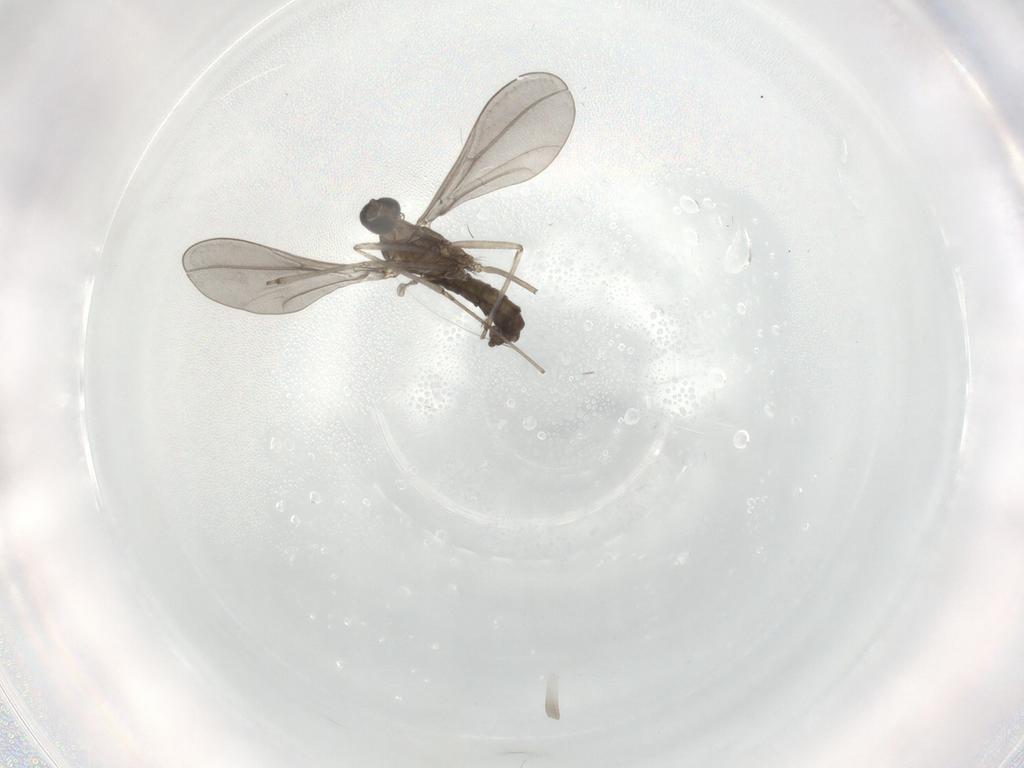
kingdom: Animalia
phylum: Arthropoda
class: Insecta
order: Diptera
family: Cecidomyiidae
